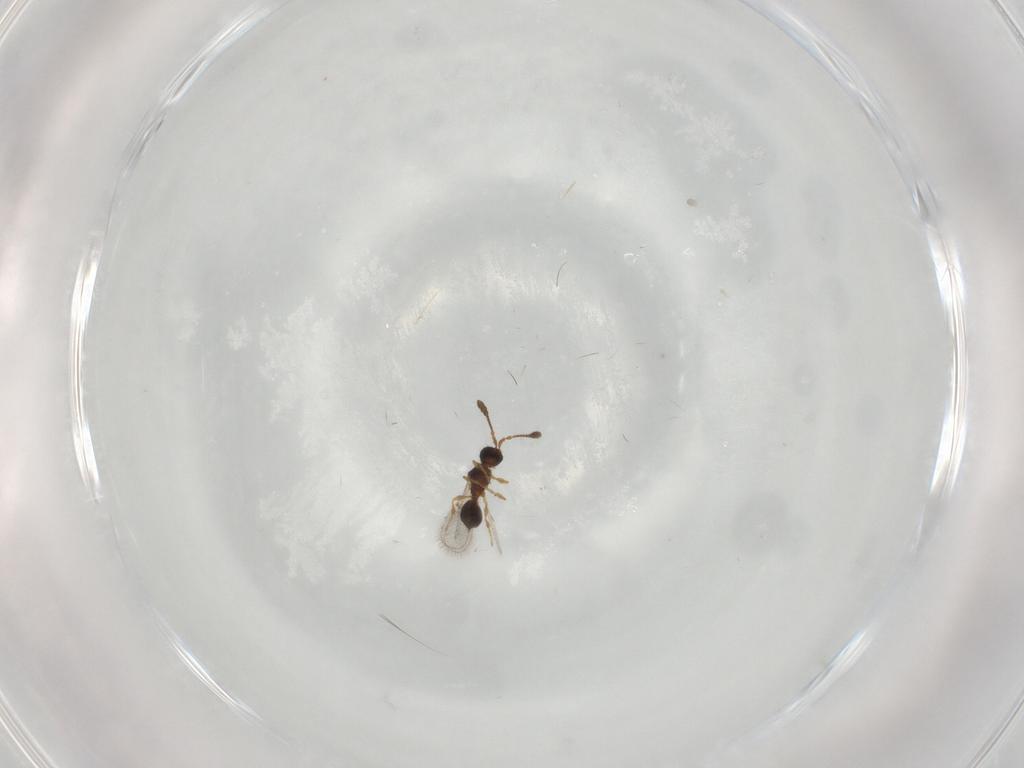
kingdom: Animalia
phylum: Arthropoda
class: Insecta
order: Hymenoptera
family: Diapriidae
